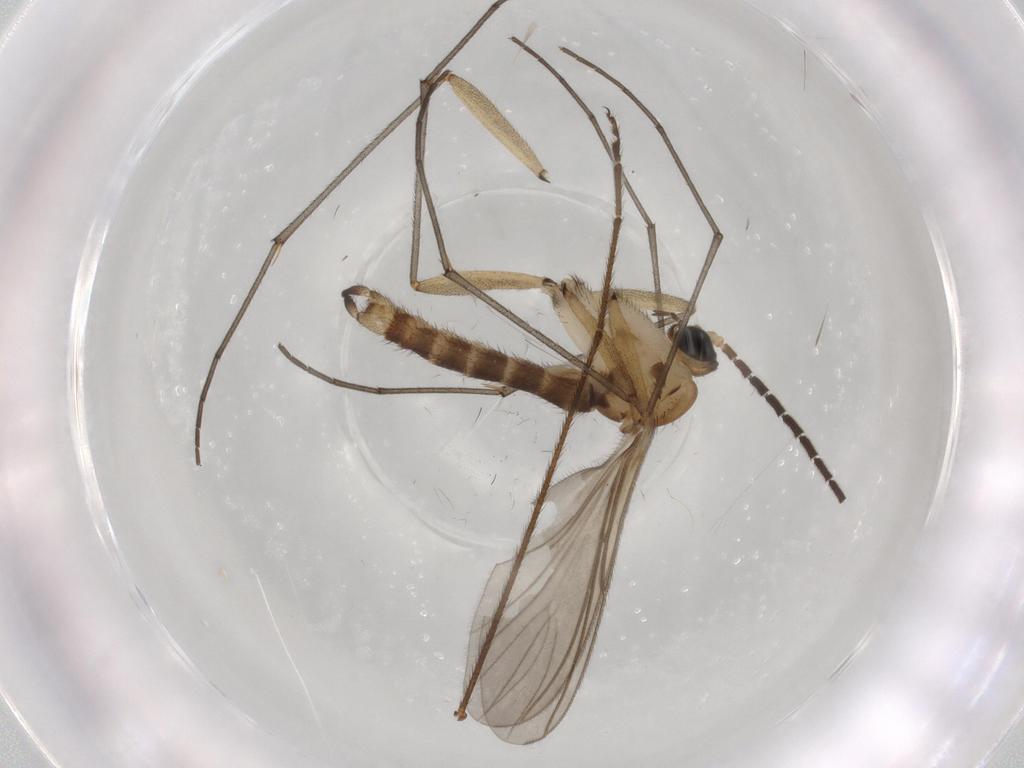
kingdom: Animalia
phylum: Arthropoda
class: Insecta
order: Diptera
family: Sciaridae
